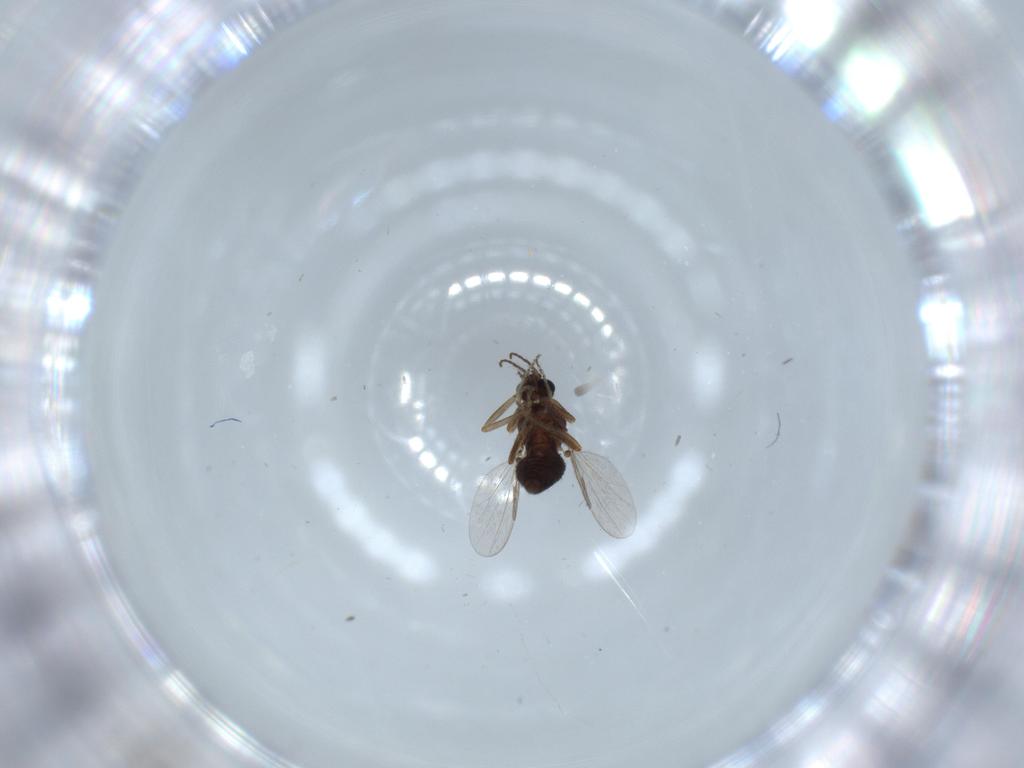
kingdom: Animalia
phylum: Arthropoda
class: Insecta
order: Diptera
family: Ceratopogonidae
